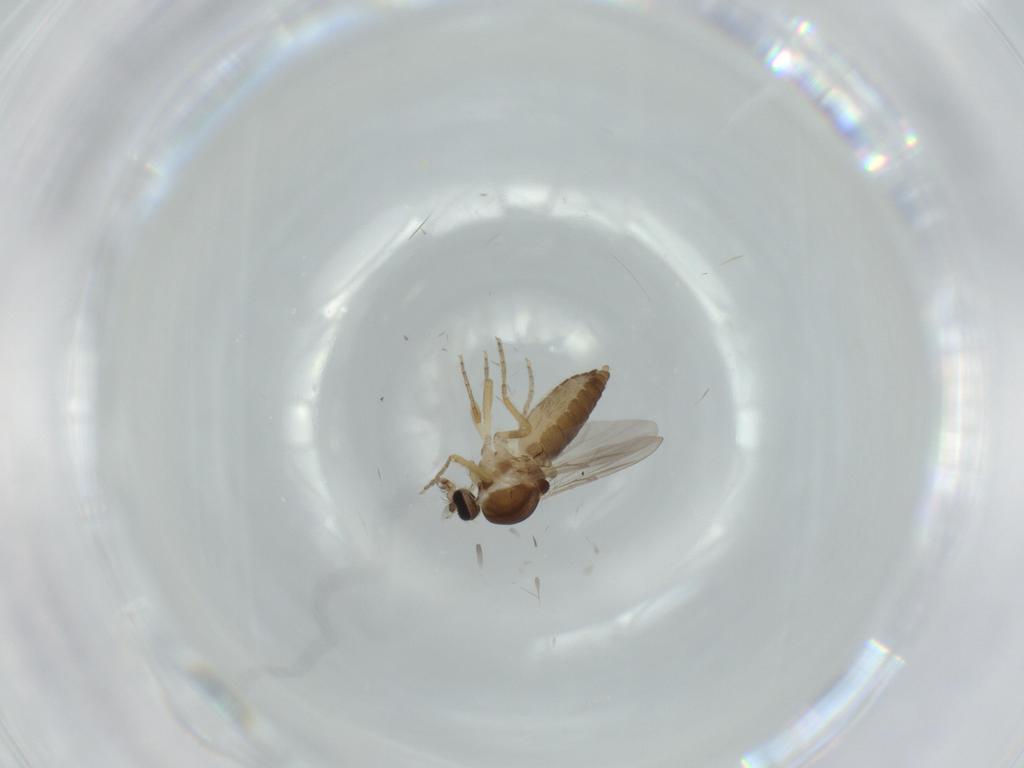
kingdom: Animalia
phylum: Arthropoda
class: Insecta
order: Diptera
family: Ceratopogonidae
